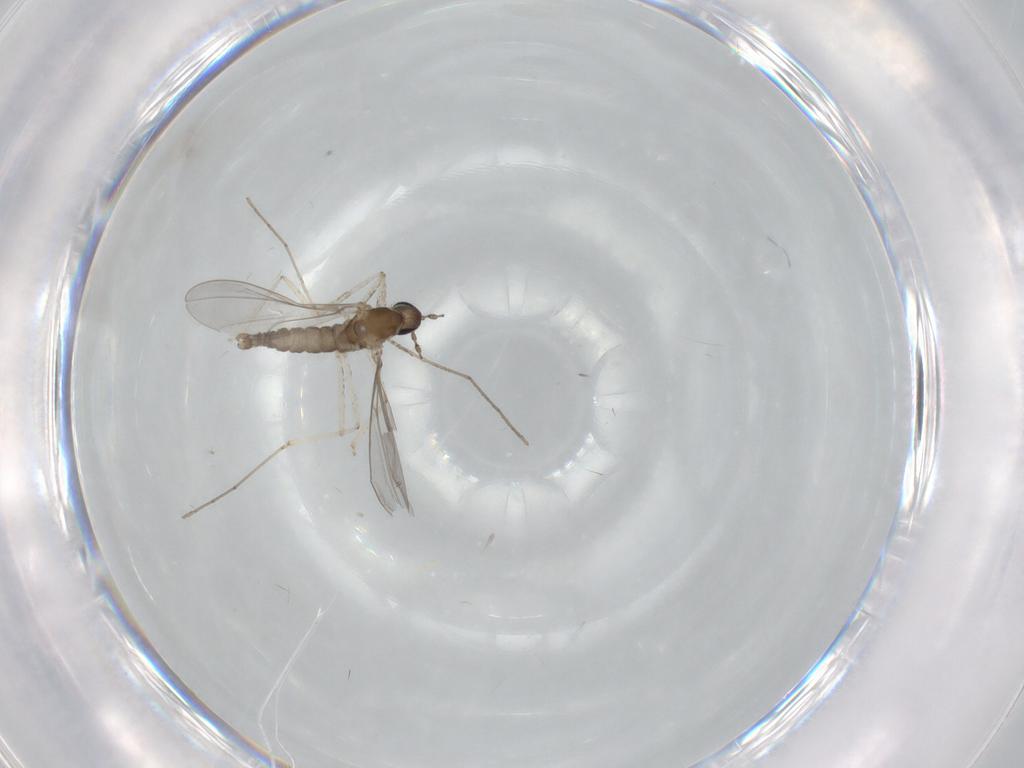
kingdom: Animalia
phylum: Arthropoda
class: Insecta
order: Diptera
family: Cecidomyiidae
